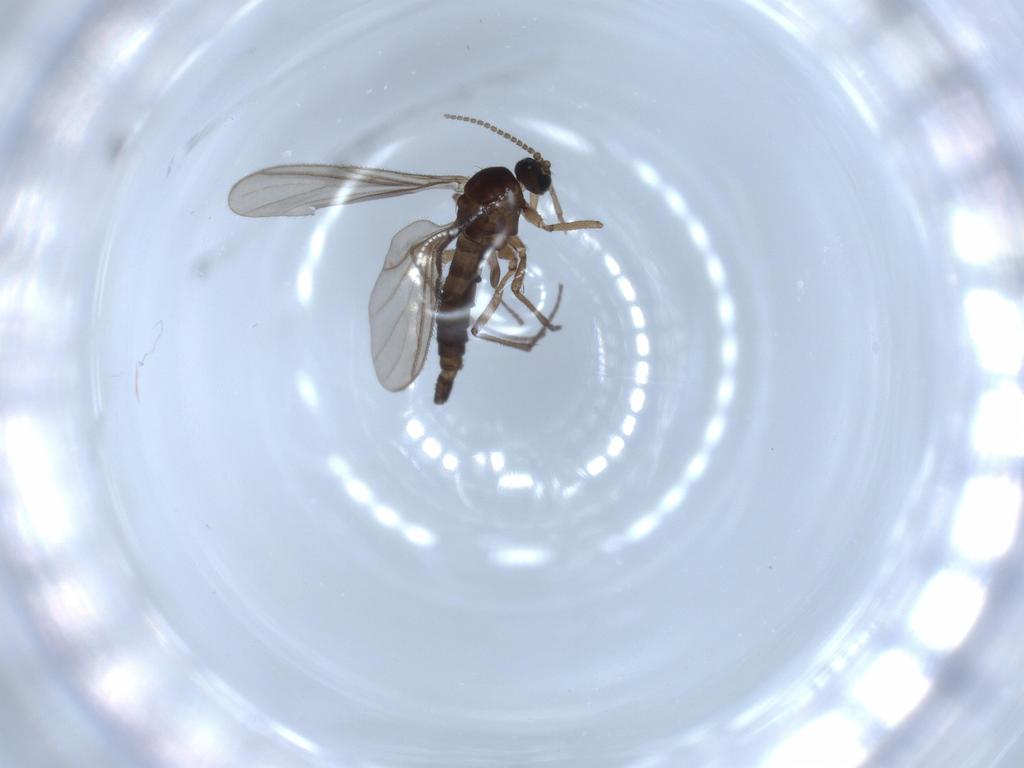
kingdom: Animalia
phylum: Arthropoda
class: Insecta
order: Diptera
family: Sciaridae
